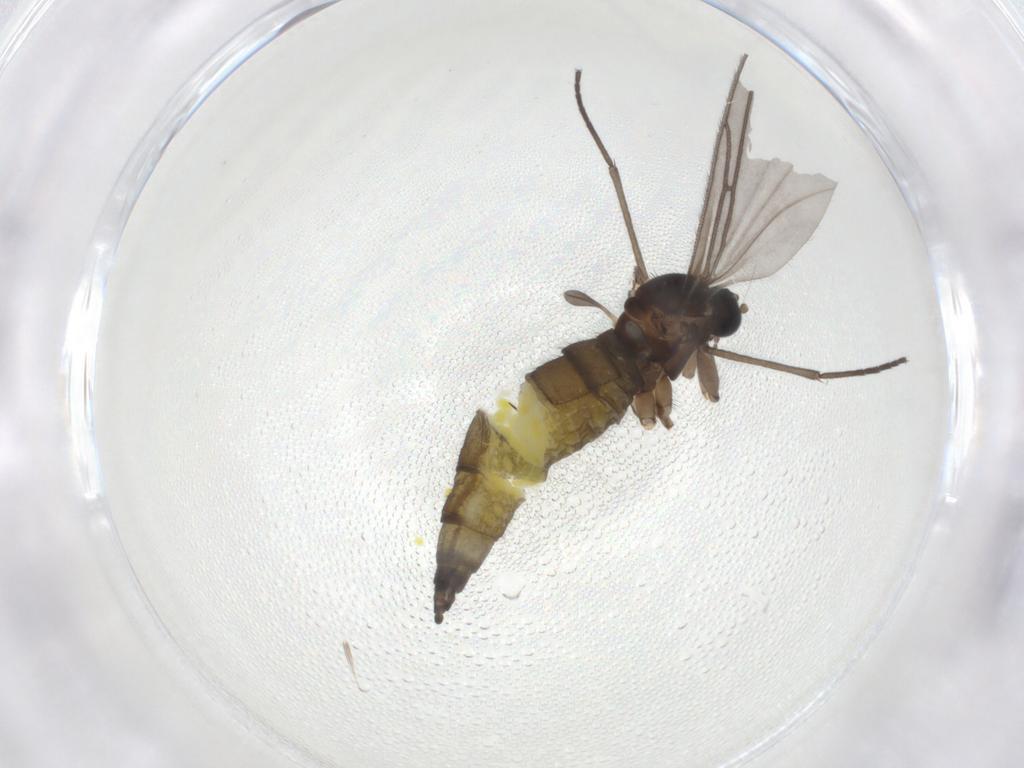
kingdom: Animalia
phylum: Arthropoda
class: Insecta
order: Diptera
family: Sciaridae
